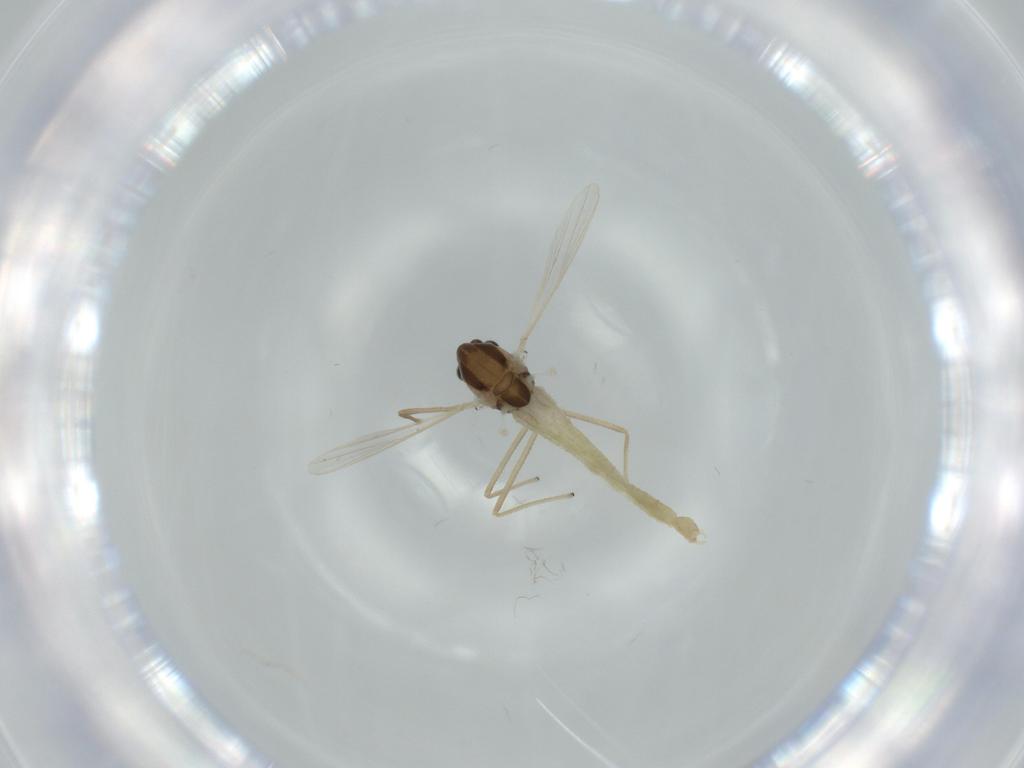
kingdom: Animalia
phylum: Arthropoda
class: Insecta
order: Diptera
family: Chironomidae
